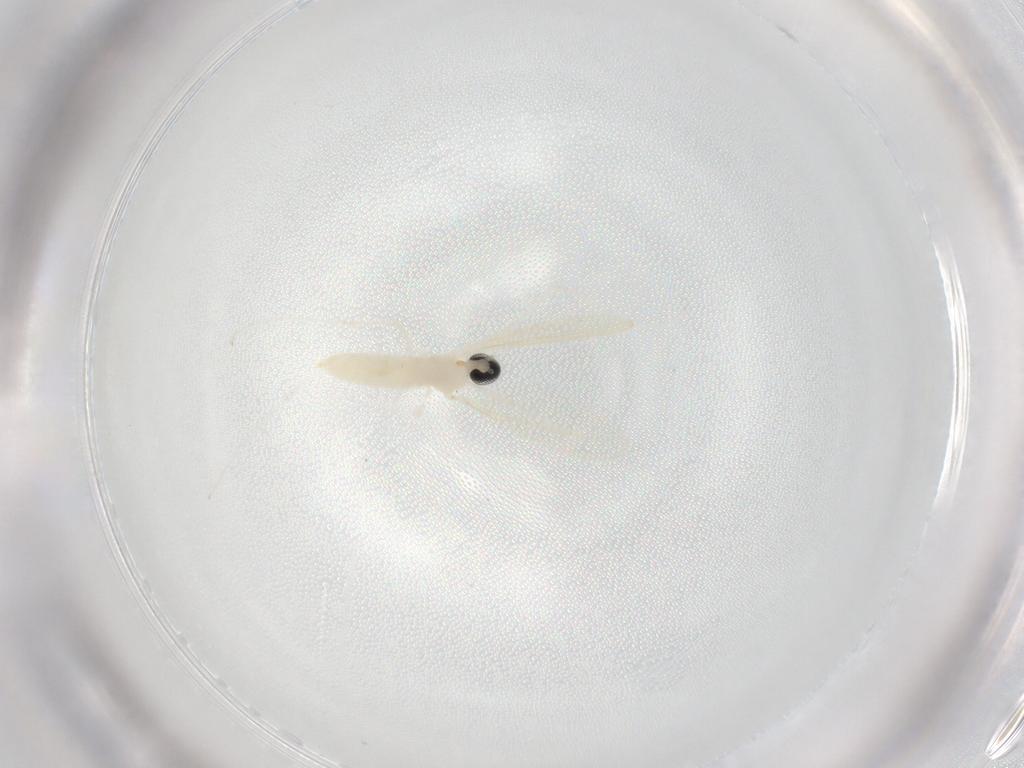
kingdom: Animalia
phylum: Arthropoda
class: Insecta
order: Diptera
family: Cecidomyiidae
